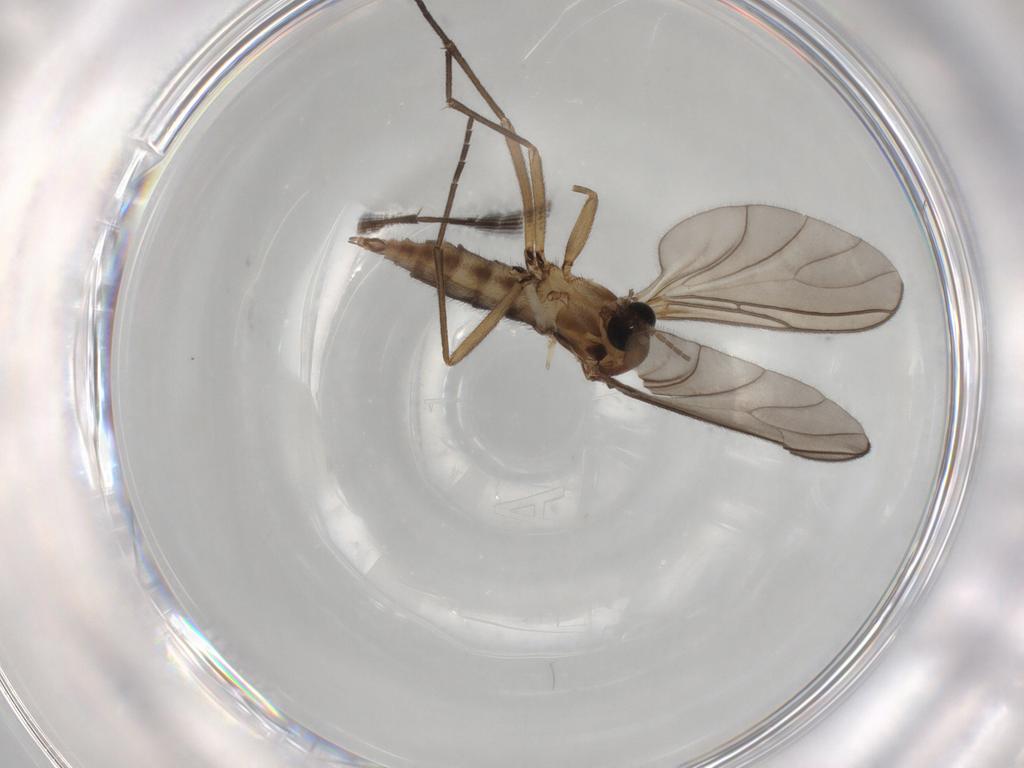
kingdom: Animalia
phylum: Arthropoda
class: Insecta
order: Diptera
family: Sciaridae
